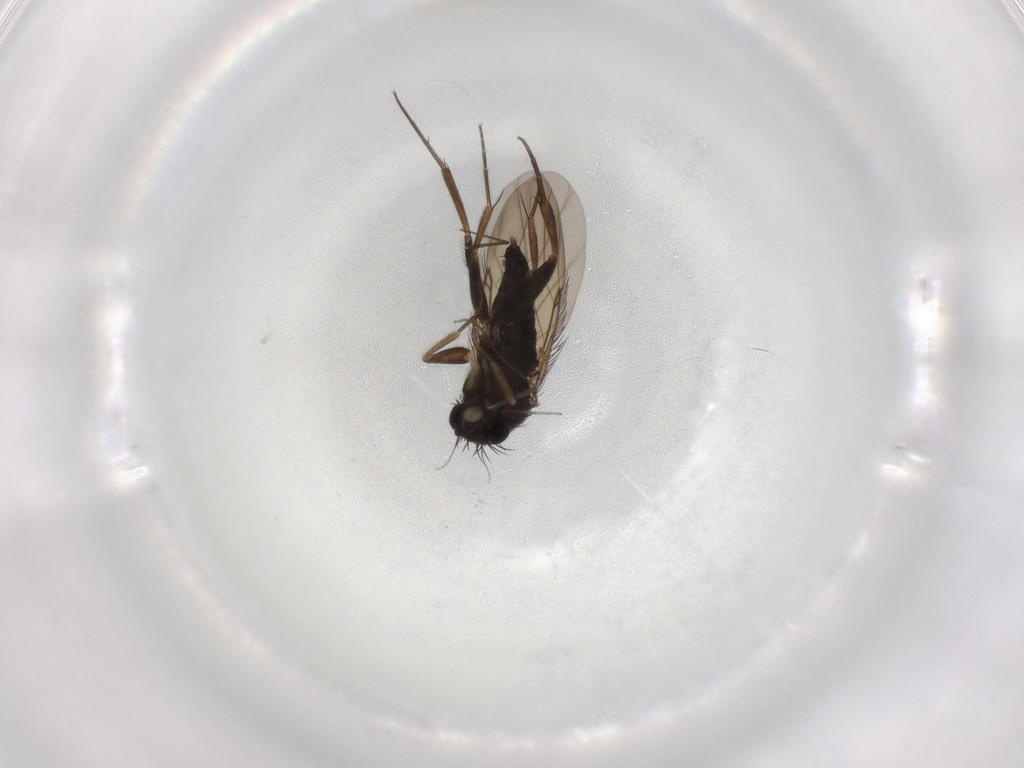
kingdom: Animalia
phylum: Arthropoda
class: Insecta
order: Diptera
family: Phoridae
